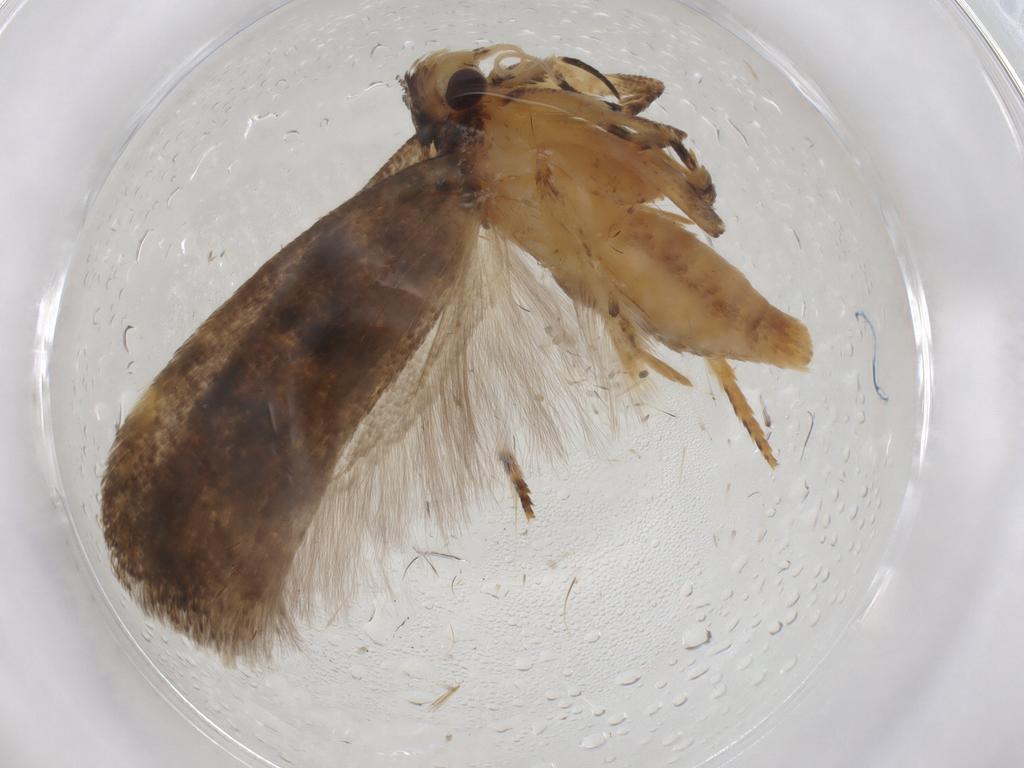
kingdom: Animalia
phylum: Arthropoda
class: Insecta
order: Lepidoptera
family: Gelechiidae
